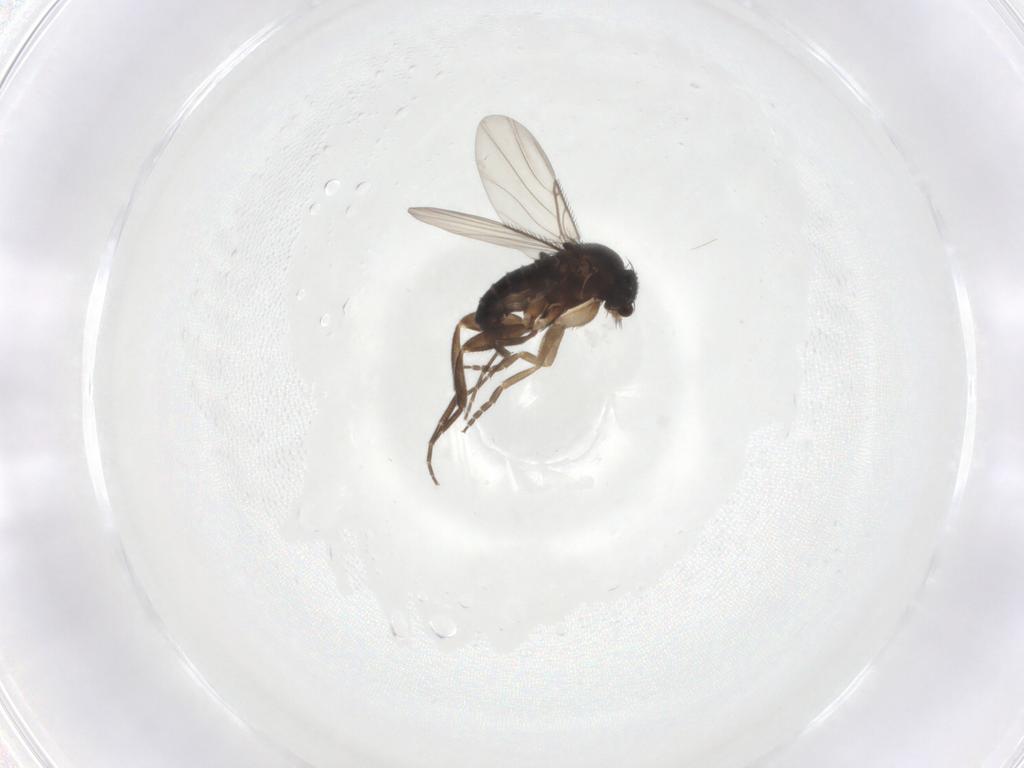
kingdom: Animalia
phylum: Arthropoda
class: Insecta
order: Diptera
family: Phoridae
